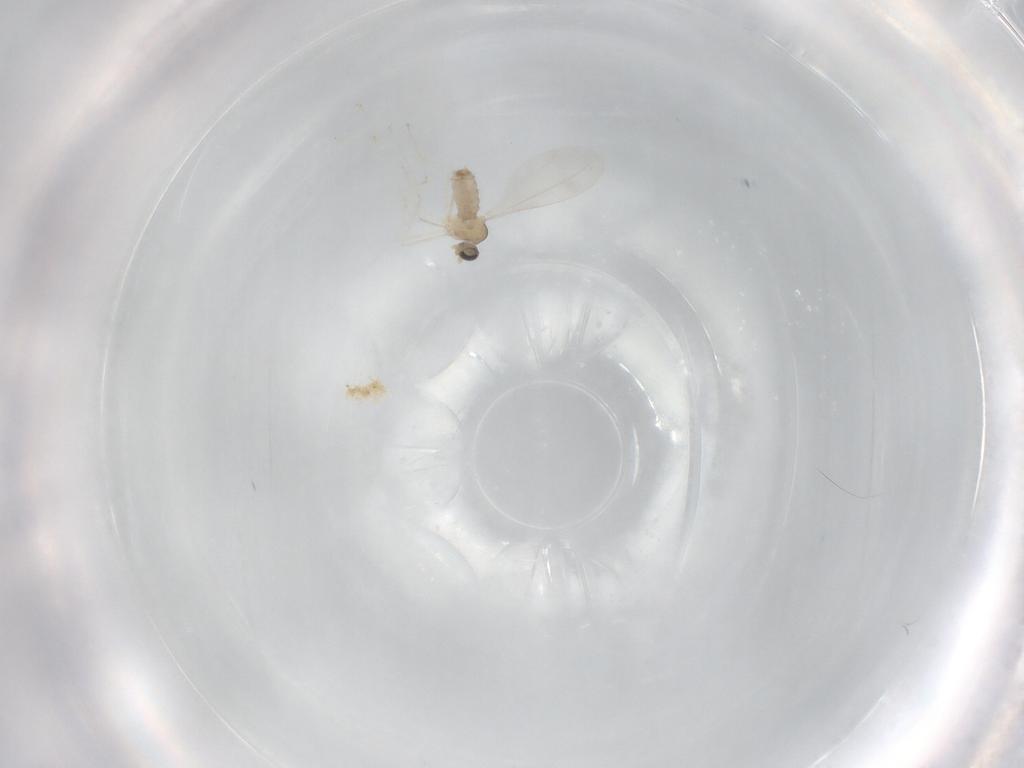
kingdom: Animalia
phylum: Arthropoda
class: Insecta
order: Diptera
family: Cecidomyiidae
